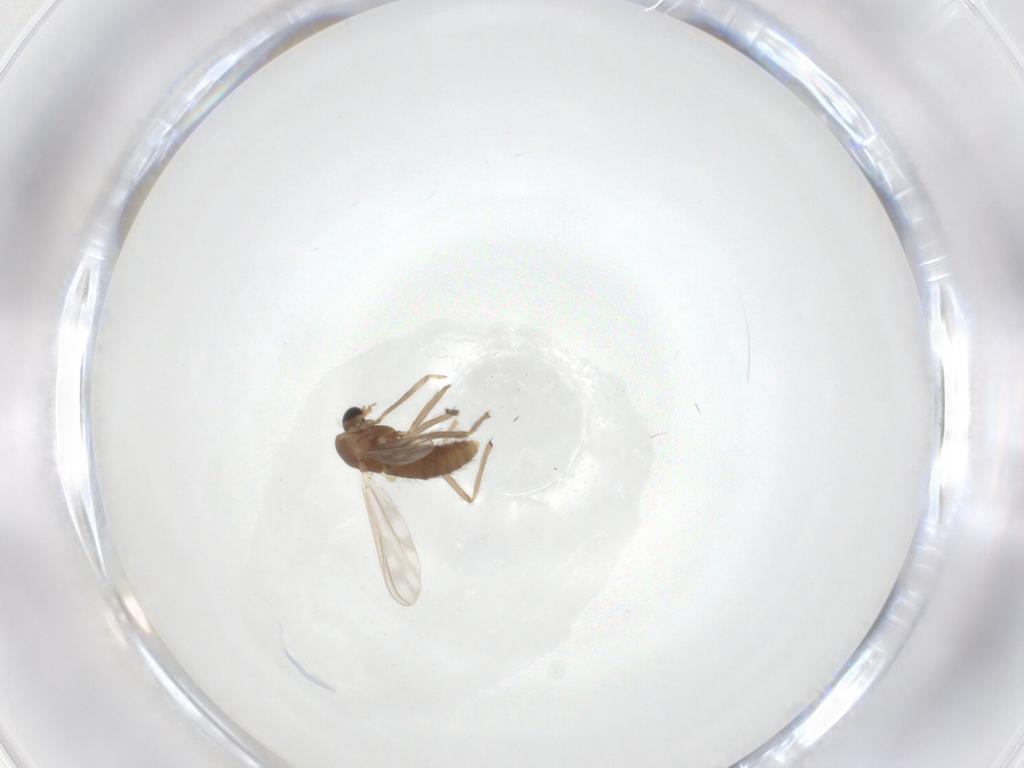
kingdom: Animalia
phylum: Arthropoda
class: Insecta
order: Diptera
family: Chironomidae
